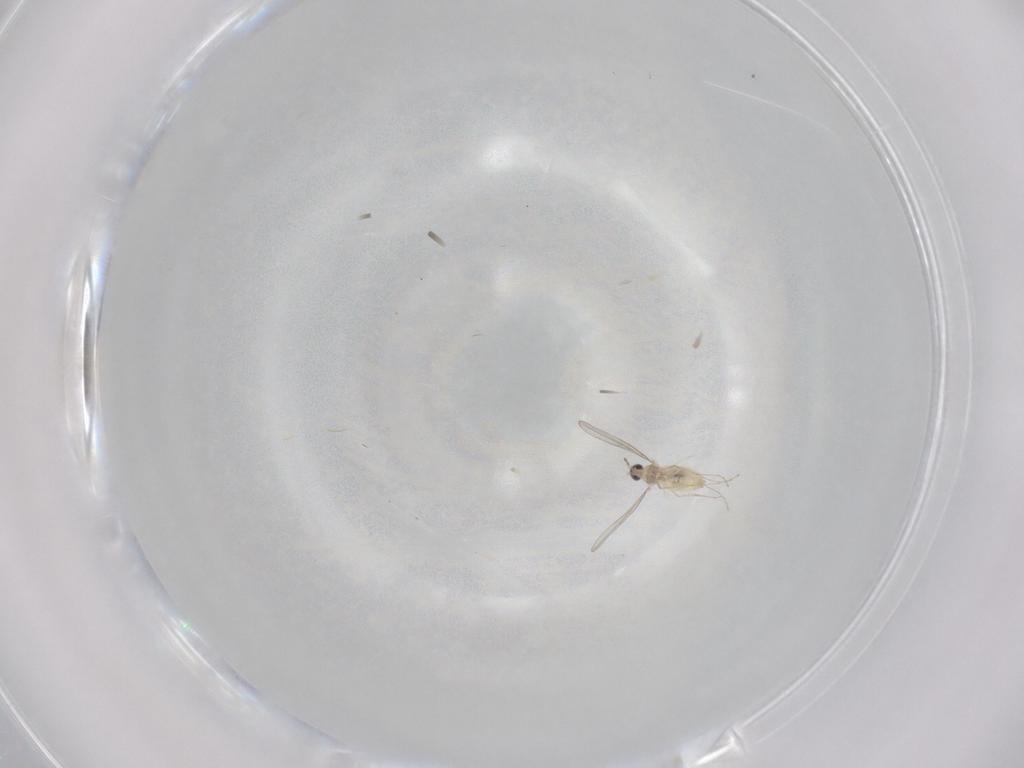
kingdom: Animalia
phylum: Arthropoda
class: Insecta
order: Diptera
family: Cecidomyiidae
